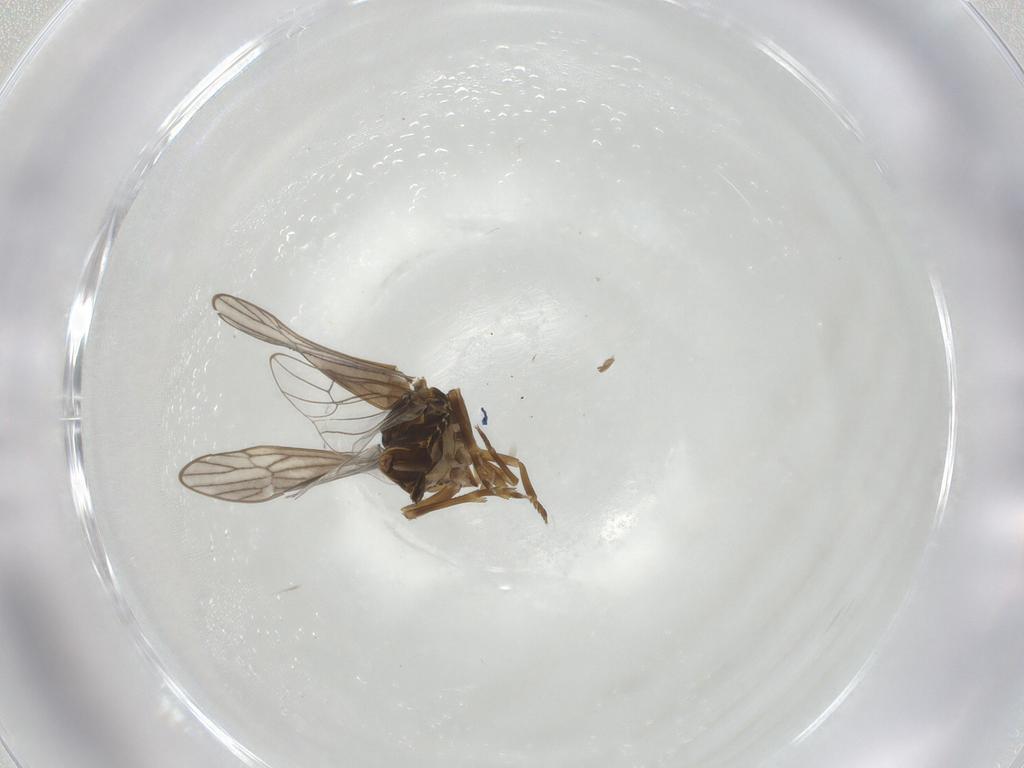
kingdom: Animalia
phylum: Arthropoda
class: Insecta
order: Hemiptera
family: Delphacidae
